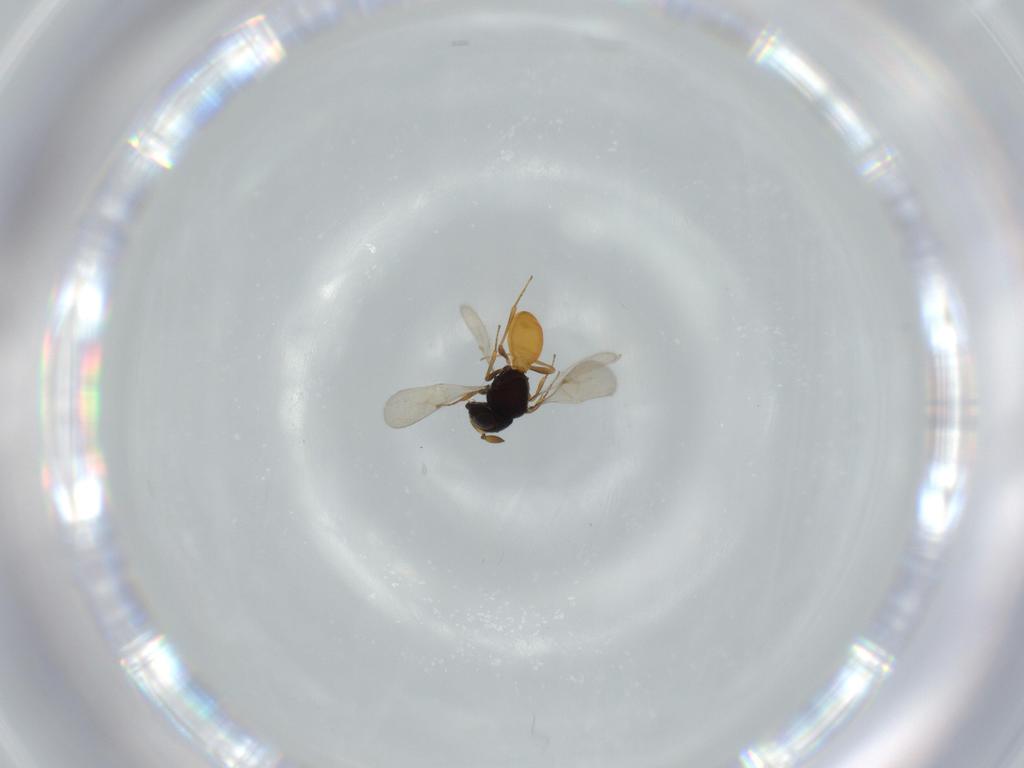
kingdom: Animalia
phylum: Arthropoda
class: Insecta
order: Hymenoptera
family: Scelionidae
